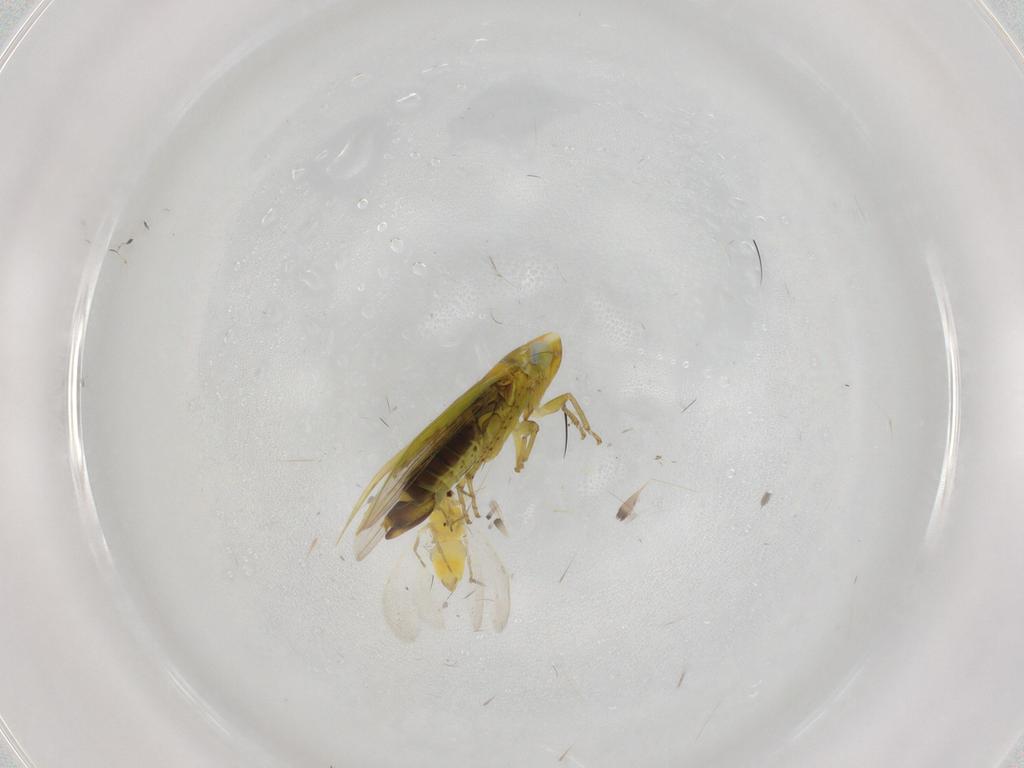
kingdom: Animalia
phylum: Arthropoda
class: Insecta
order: Hemiptera
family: Cicadellidae
